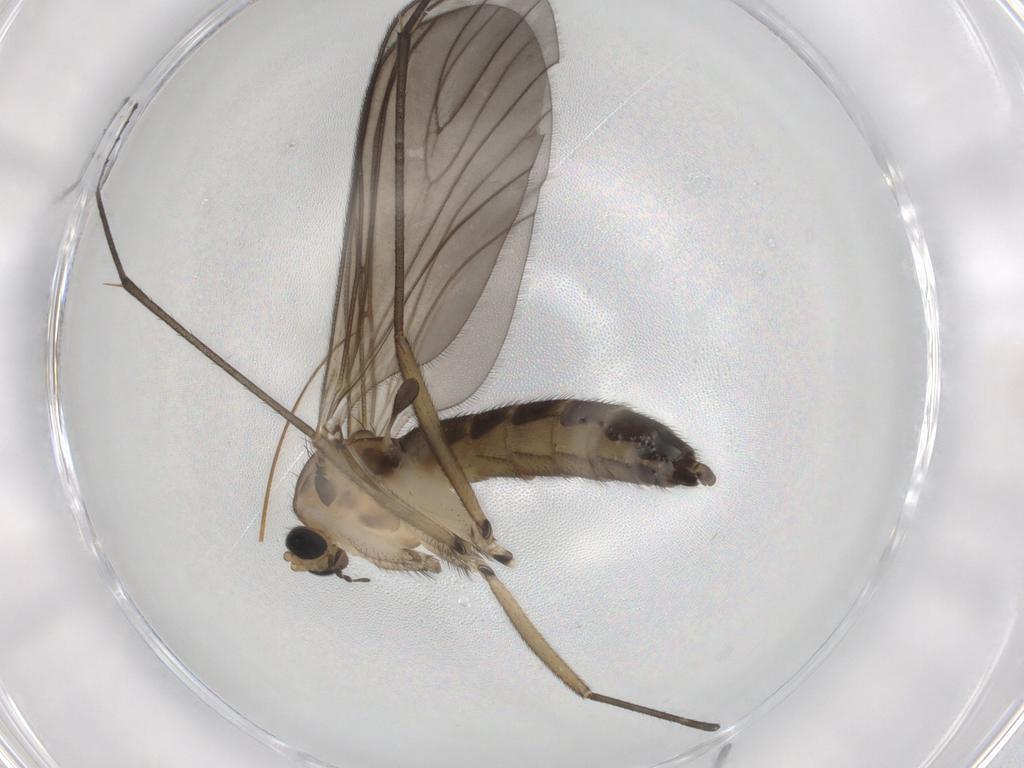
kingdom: Animalia
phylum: Arthropoda
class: Insecta
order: Diptera
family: Sciaridae
